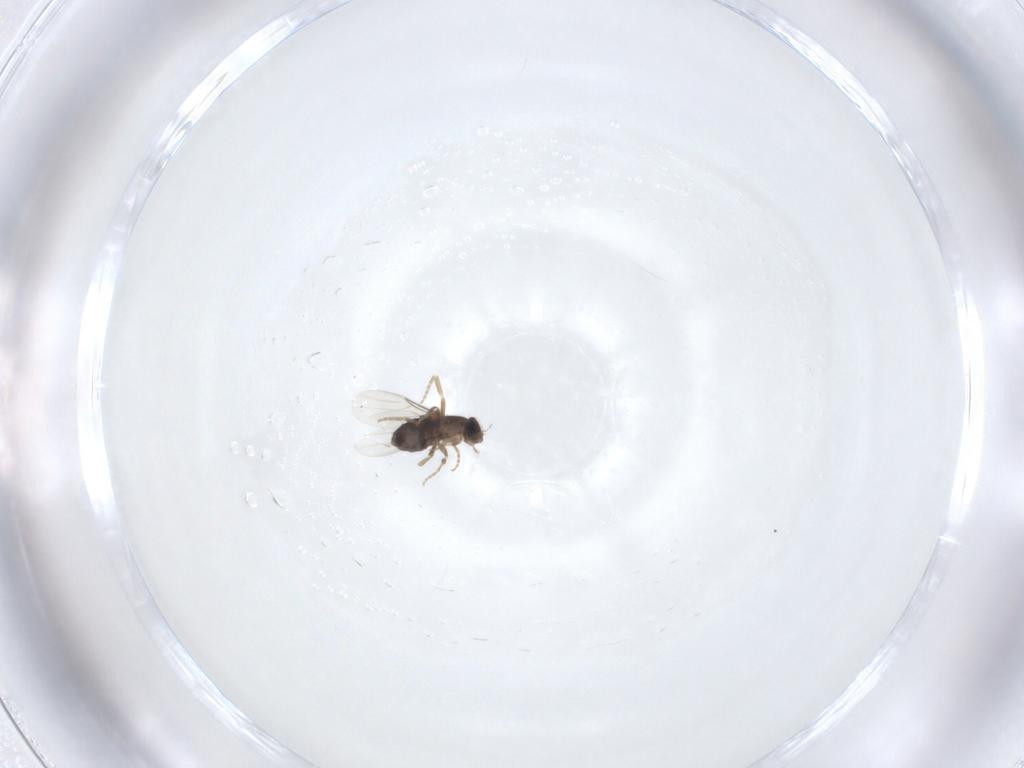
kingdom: Animalia
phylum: Arthropoda
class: Insecta
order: Diptera
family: Phoridae
